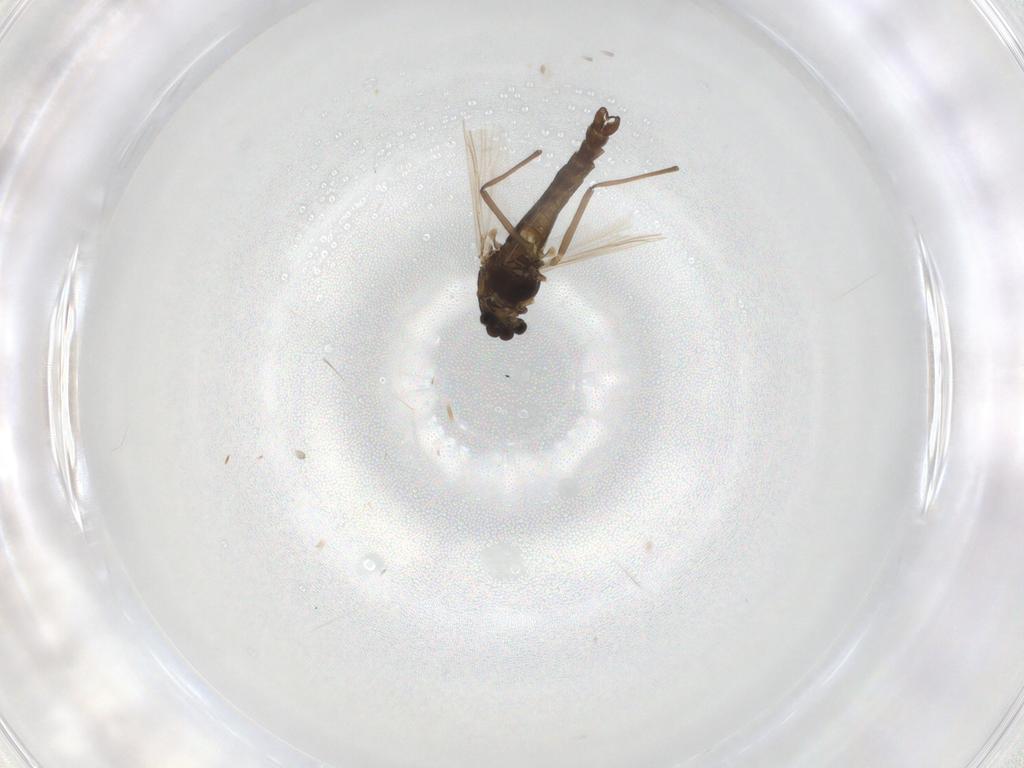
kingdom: Animalia
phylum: Arthropoda
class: Insecta
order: Diptera
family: Chironomidae
